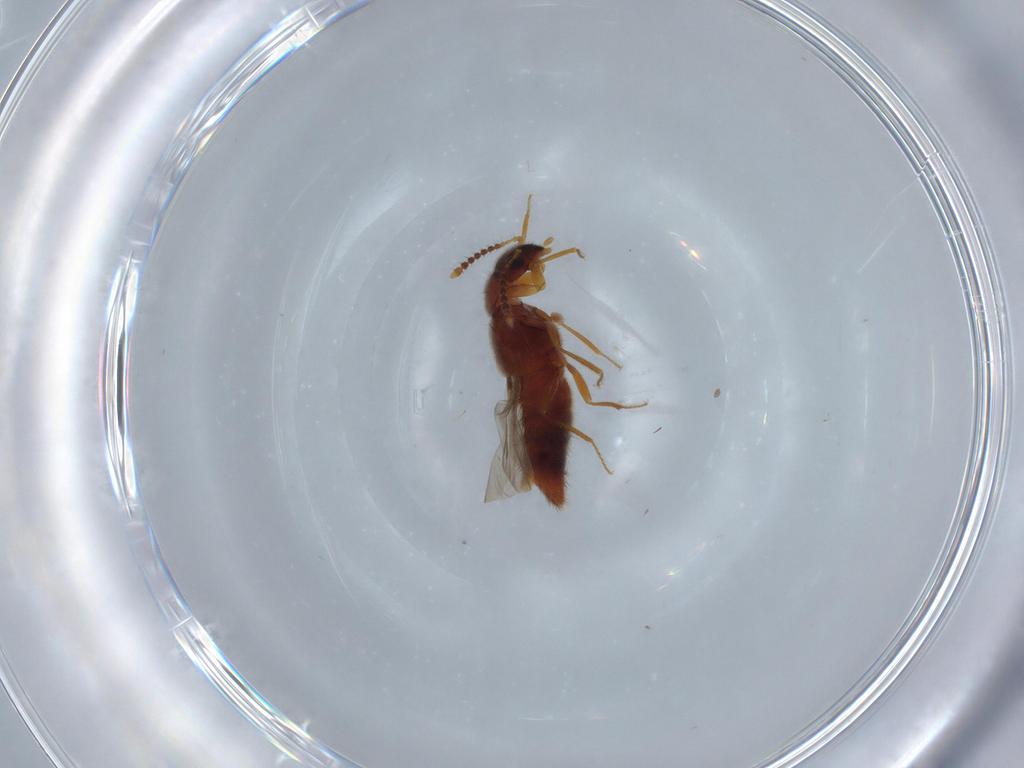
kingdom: Animalia
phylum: Arthropoda
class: Insecta
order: Coleoptera
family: Staphylinidae
